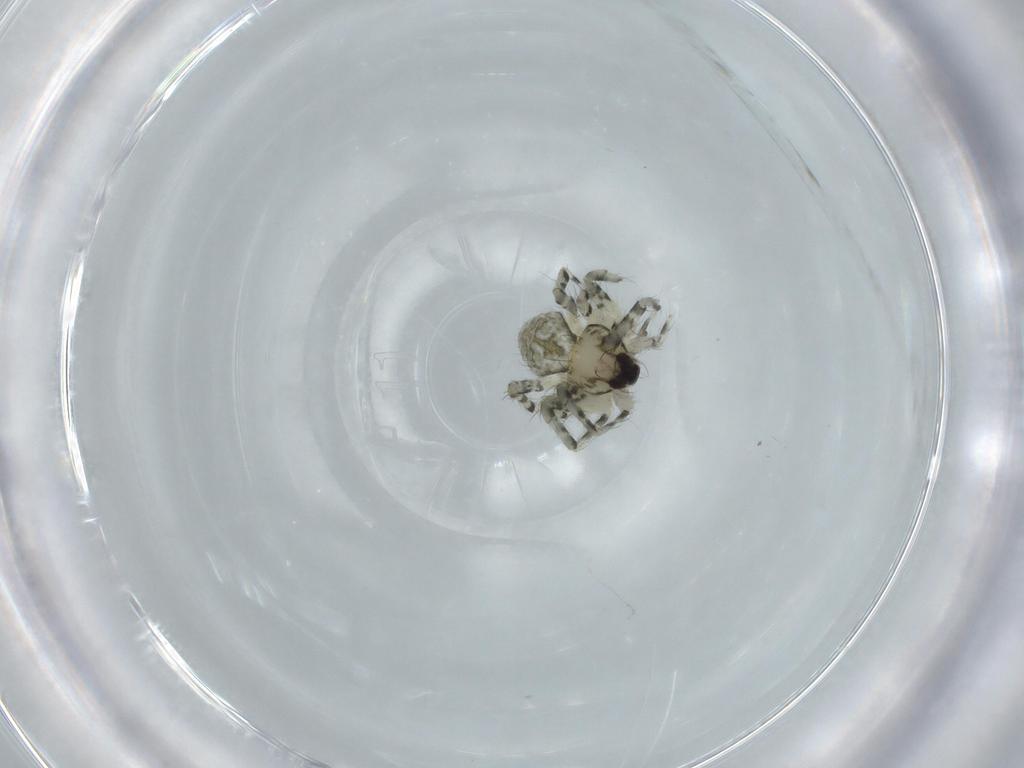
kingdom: Animalia
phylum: Arthropoda
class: Arachnida
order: Araneae
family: Hersiliidae
